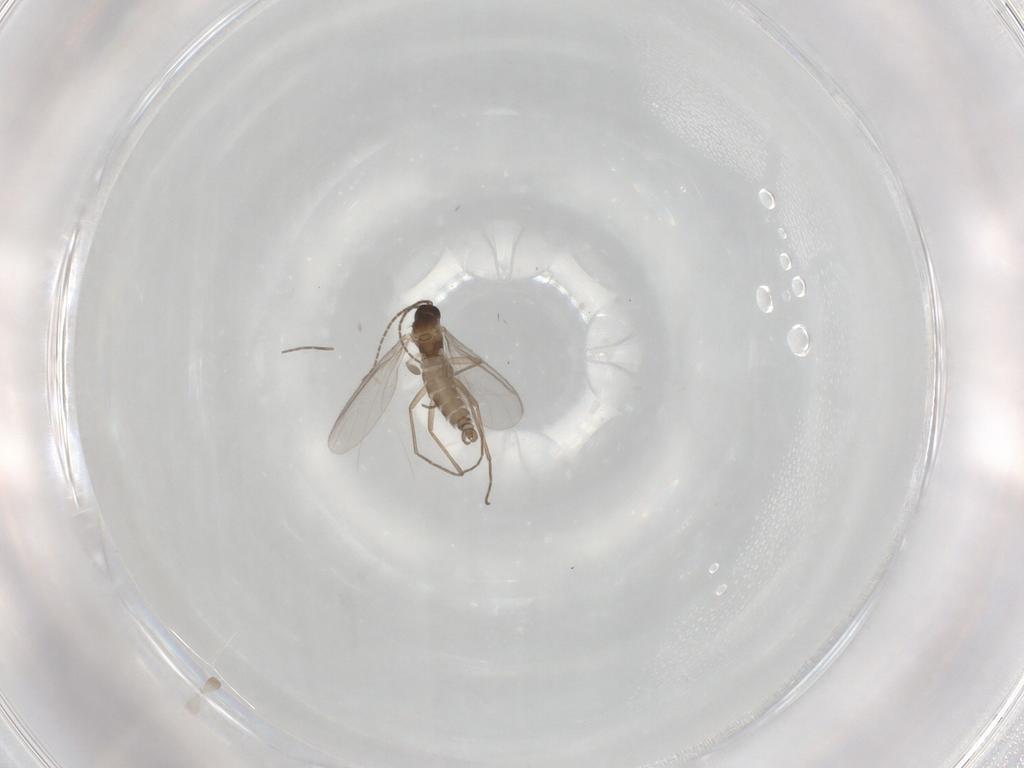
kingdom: Animalia
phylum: Arthropoda
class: Insecta
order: Diptera
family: Sciaridae
